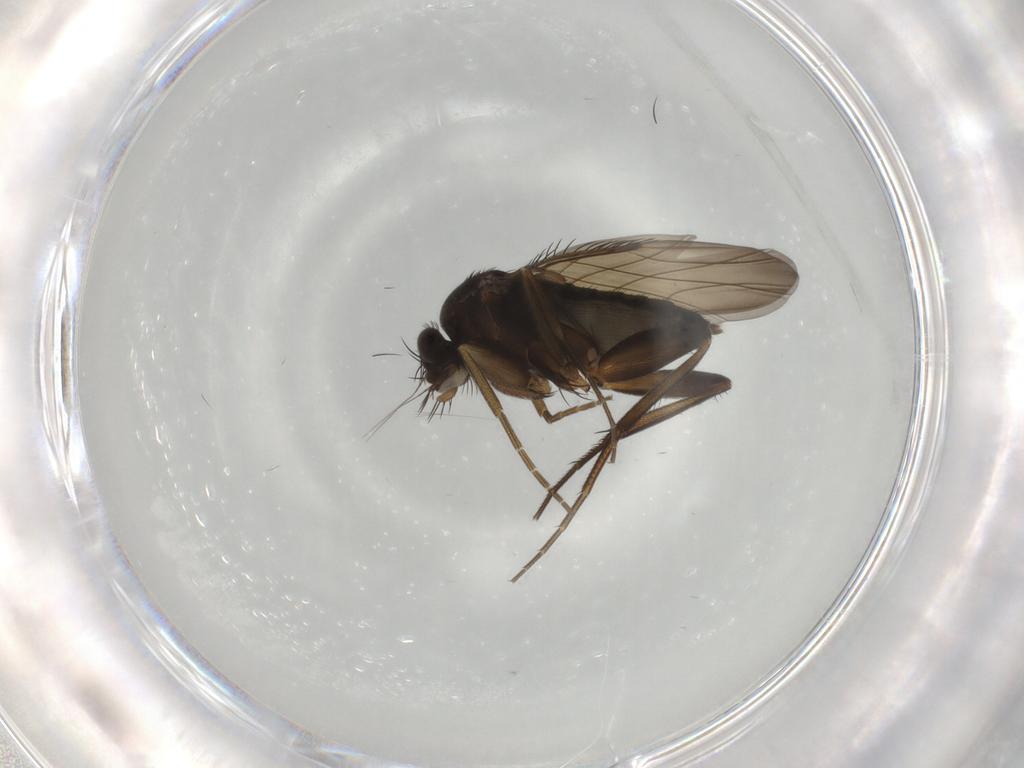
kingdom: Animalia
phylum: Arthropoda
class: Insecta
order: Diptera
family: Phoridae
